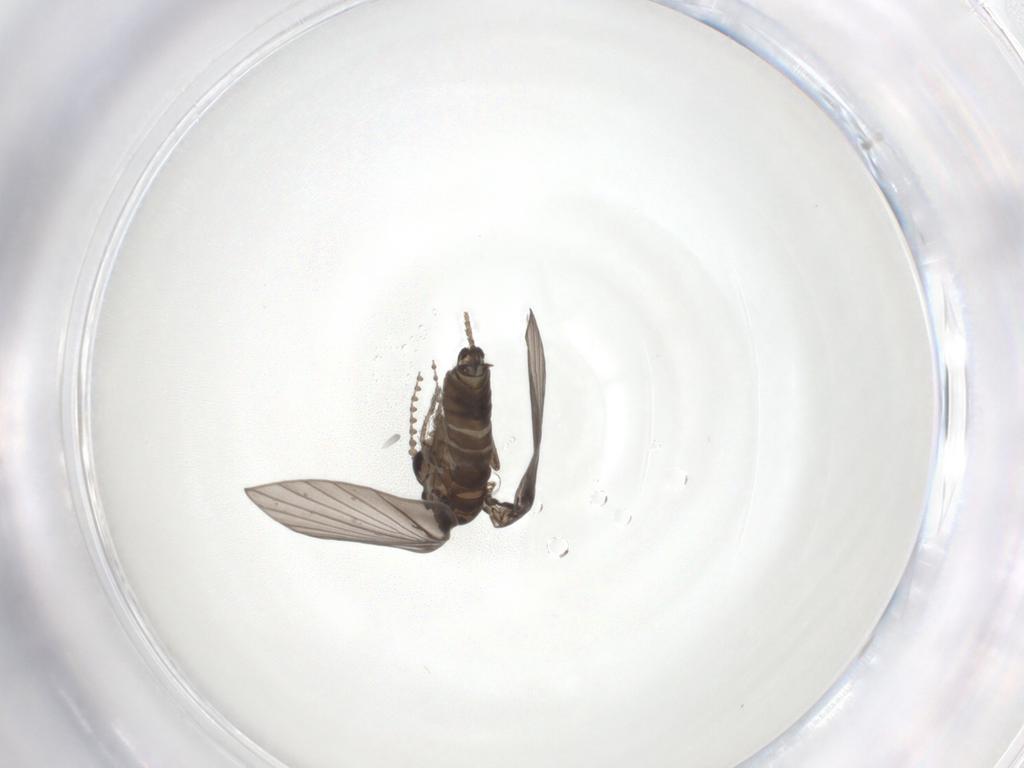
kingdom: Animalia
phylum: Arthropoda
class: Insecta
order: Diptera
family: Psychodidae
